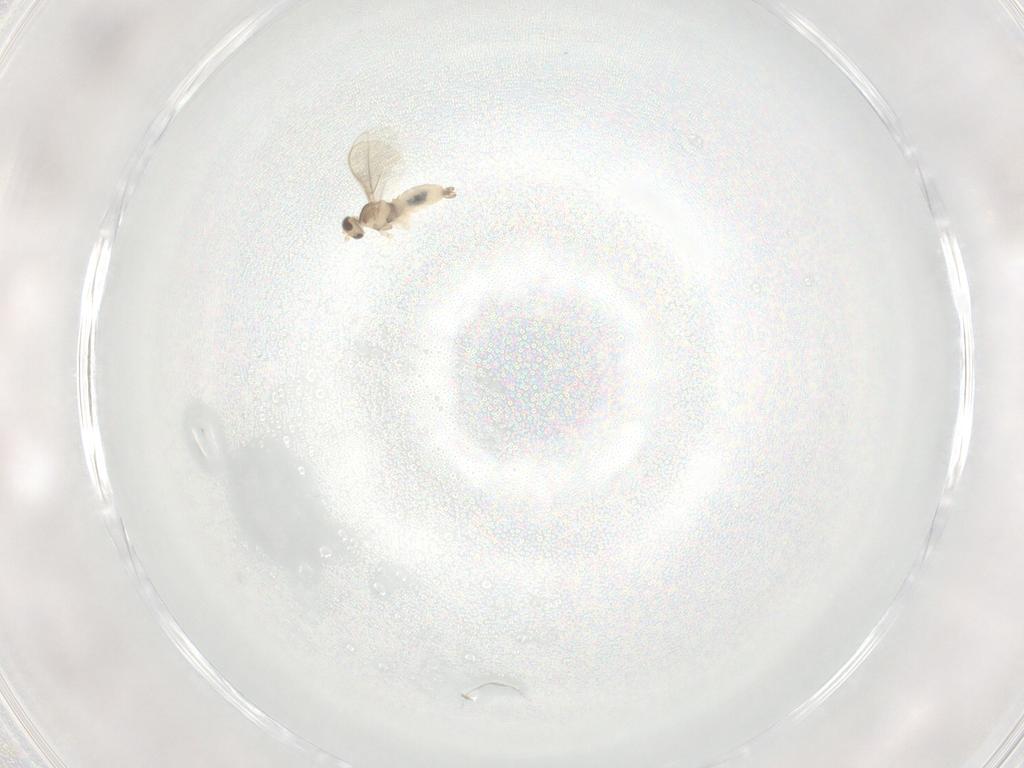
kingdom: Animalia
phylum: Arthropoda
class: Insecta
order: Diptera
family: Cecidomyiidae
